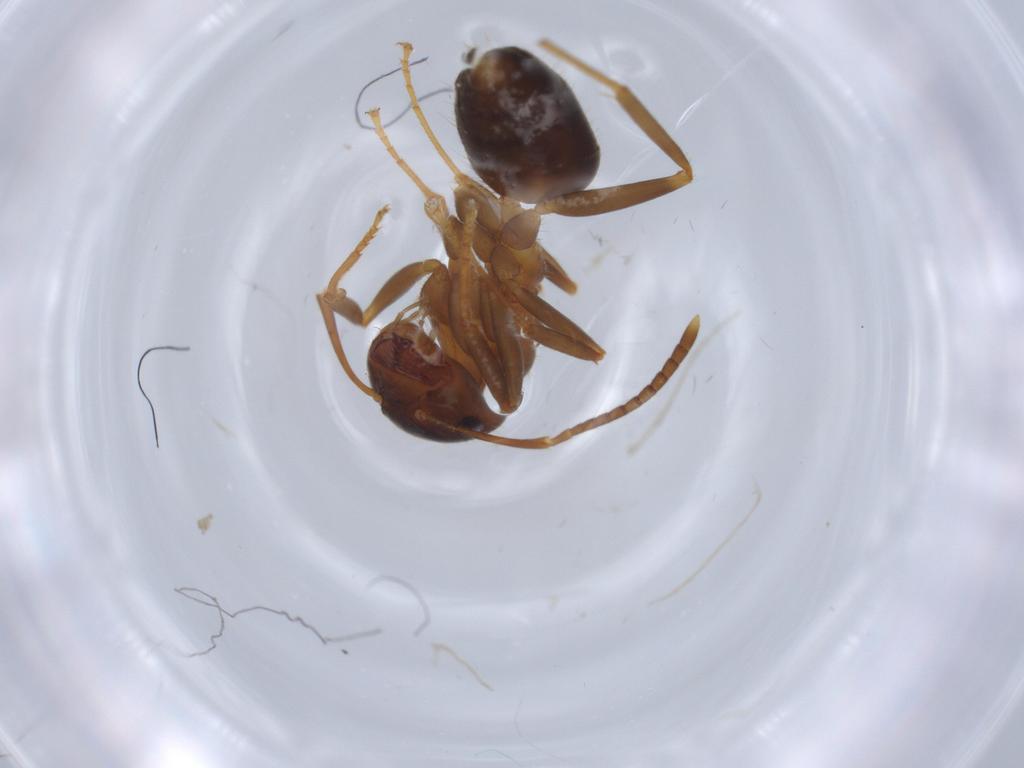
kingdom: Animalia
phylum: Arthropoda
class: Insecta
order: Hymenoptera
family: Formicidae
